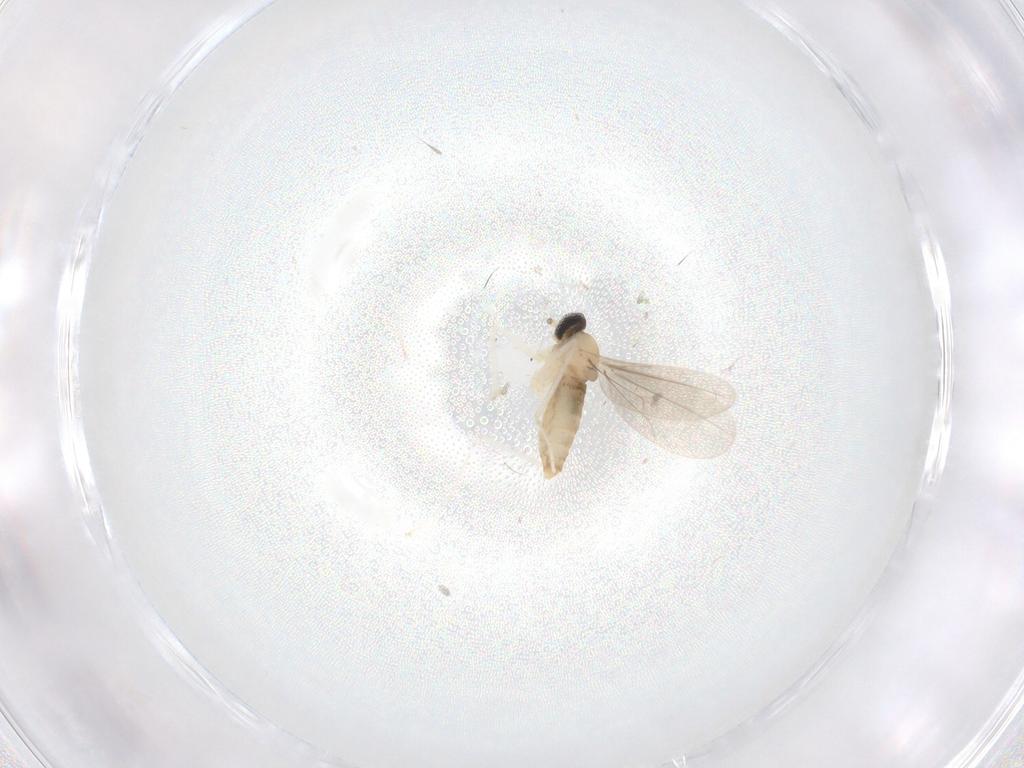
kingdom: Animalia
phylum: Arthropoda
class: Insecta
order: Diptera
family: Cecidomyiidae
